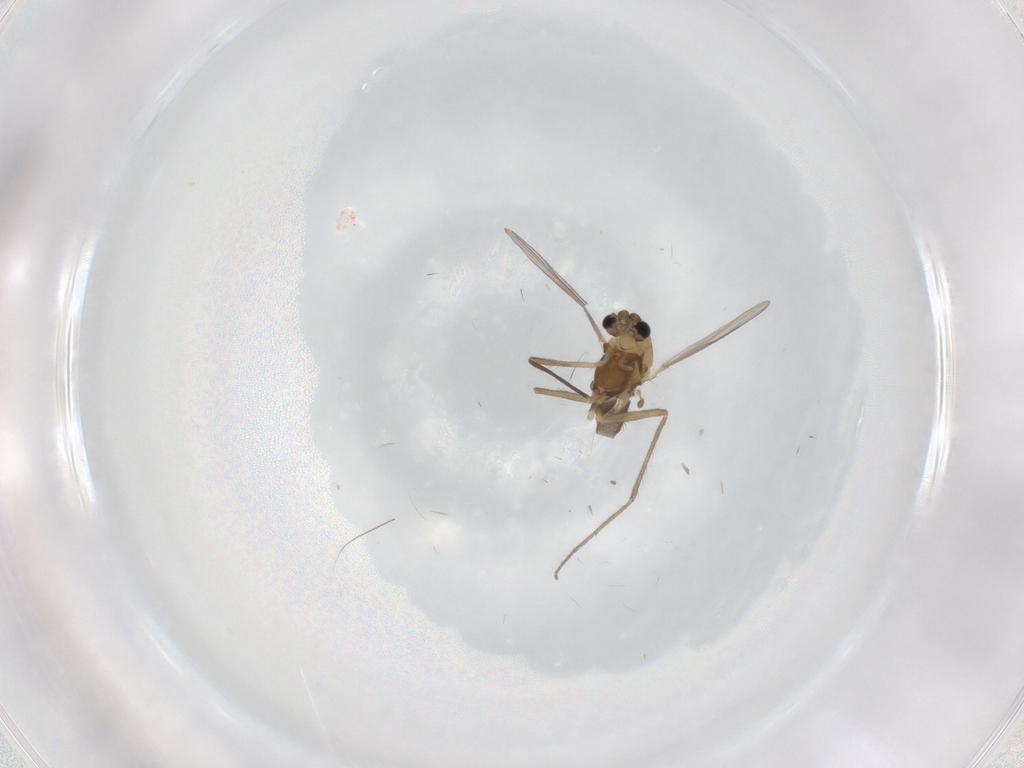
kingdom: Animalia
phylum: Arthropoda
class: Insecta
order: Diptera
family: Chironomidae
